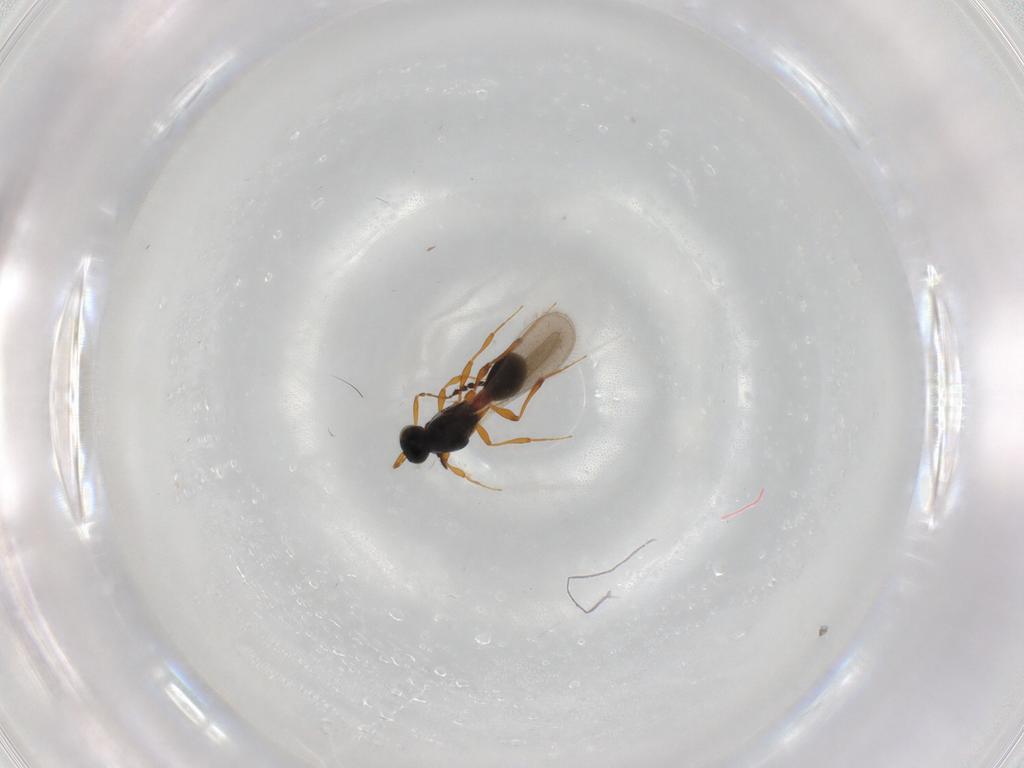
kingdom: Animalia
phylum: Arthropoda
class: Insecta
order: Hymenoptera
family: Platygastridae
